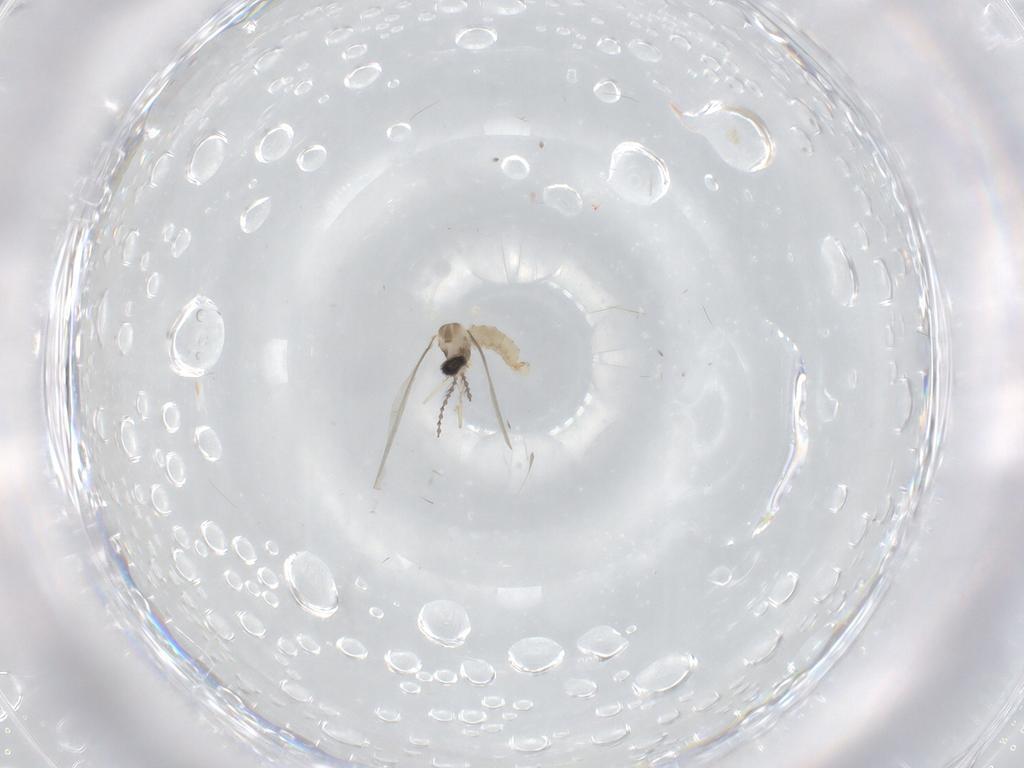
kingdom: Animalia
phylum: Arthropoda
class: Insecta
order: Diptera
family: Cecidomyiidae
